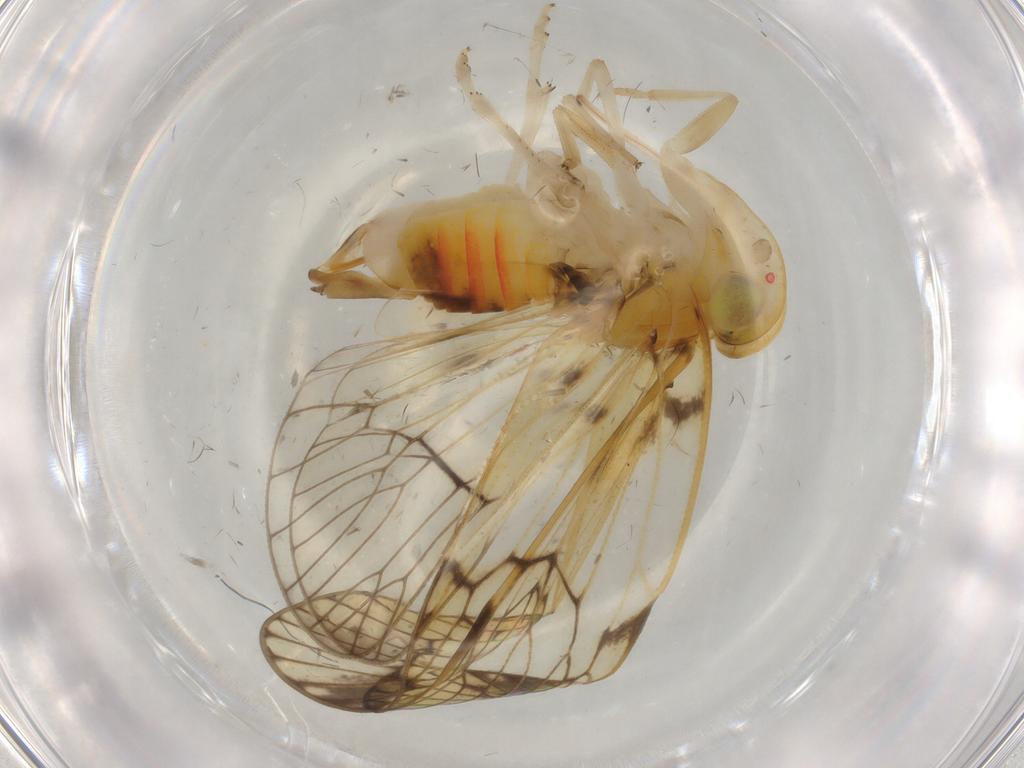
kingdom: Animalia
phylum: Arthropoda
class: Insecta
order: Hemiptera
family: Cixiidae
